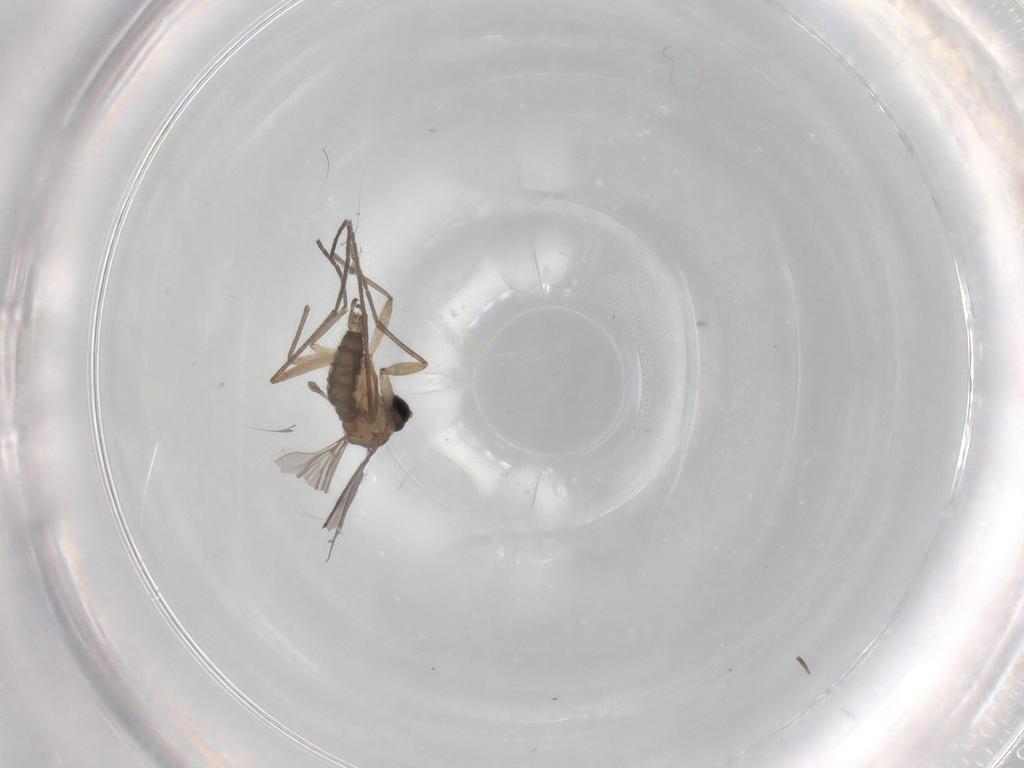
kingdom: Animalia
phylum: Arthropoda
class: Insecta
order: Diptera
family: Sciaridae
